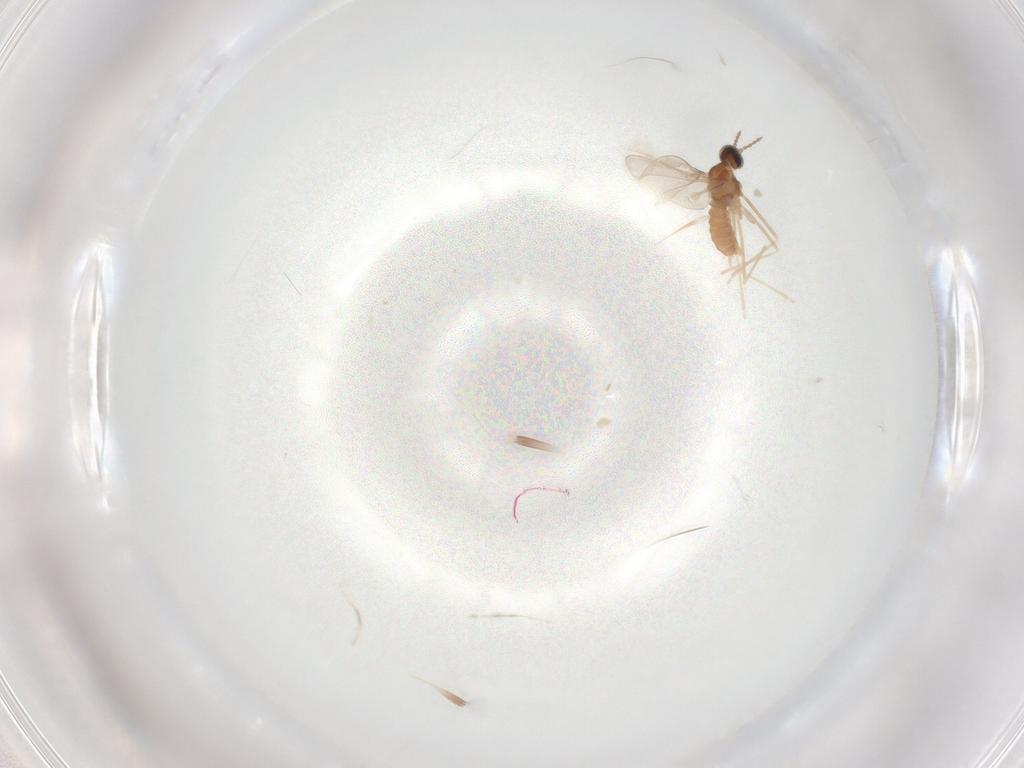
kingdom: Animalia
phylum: Arthropoda
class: Insecta
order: Diptera
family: Cecidomyiidae
